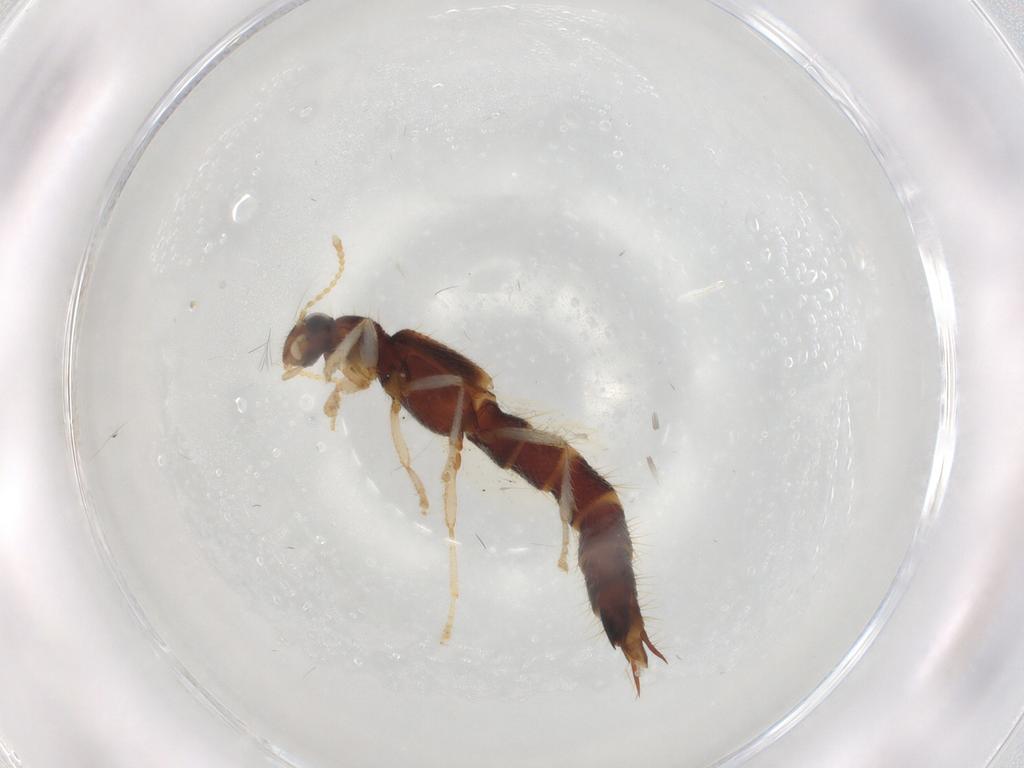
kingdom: Animalia
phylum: Arthropoda
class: Insecta
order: Coleoptera
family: Staphylinidae
